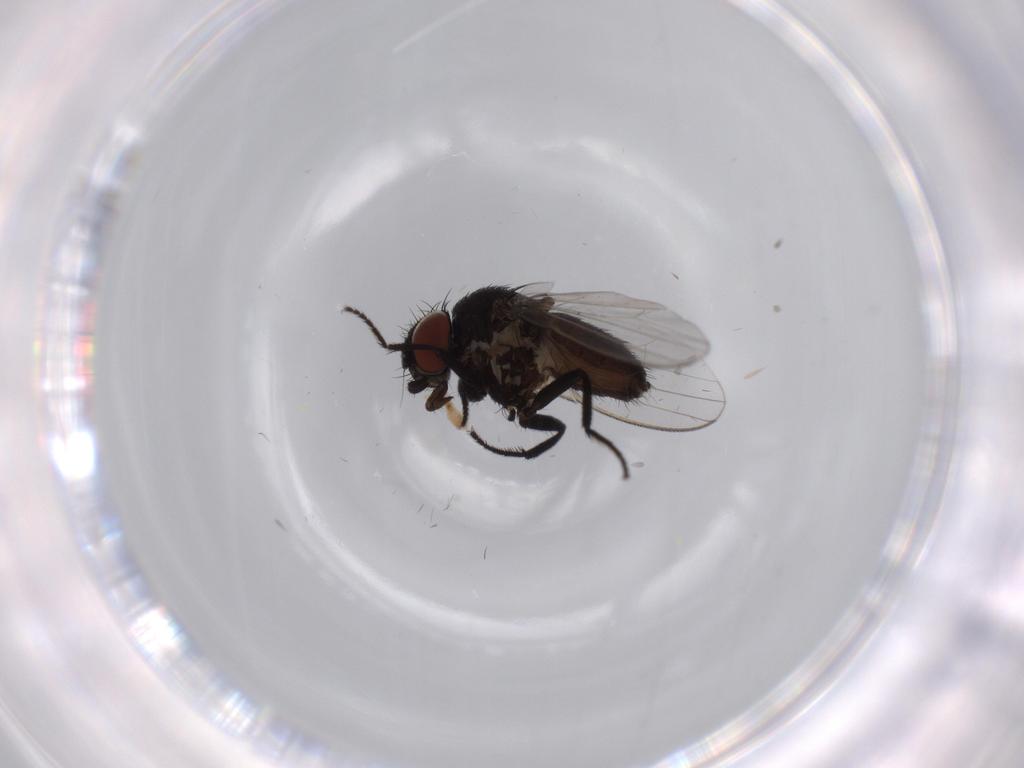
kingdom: Animalia
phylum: Arthropoda
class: Insecta
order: Diptera
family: Milichiidae
